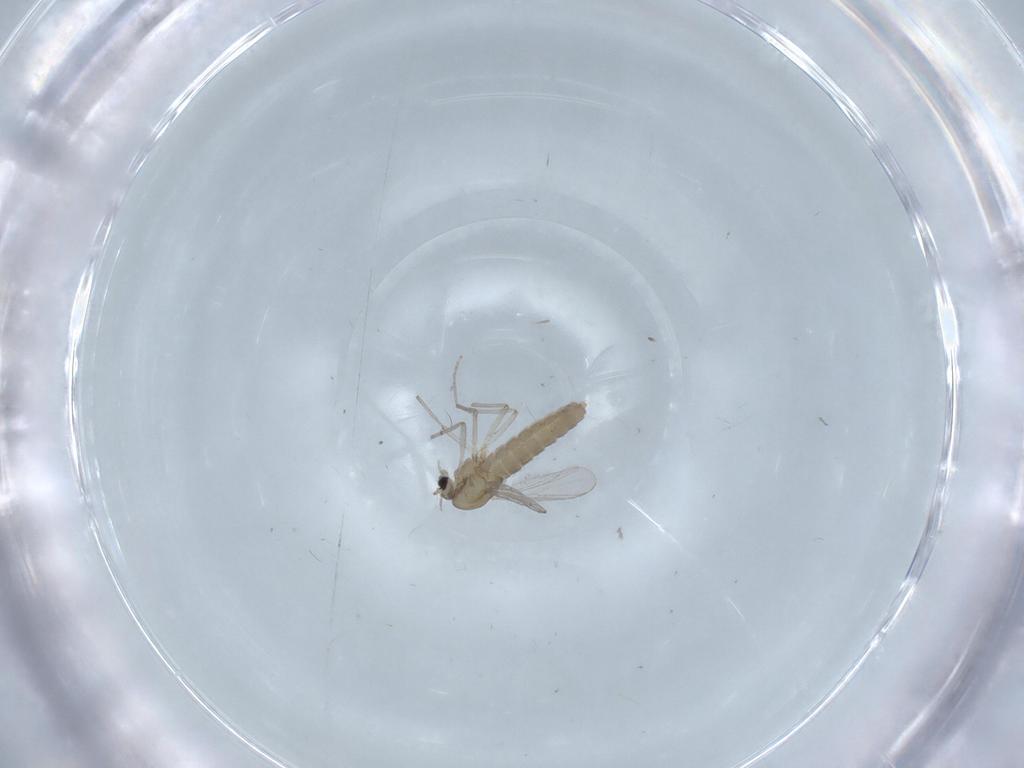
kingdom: Animalia
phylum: Arthropoda
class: Insecta
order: Diptera
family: Chironomidae
